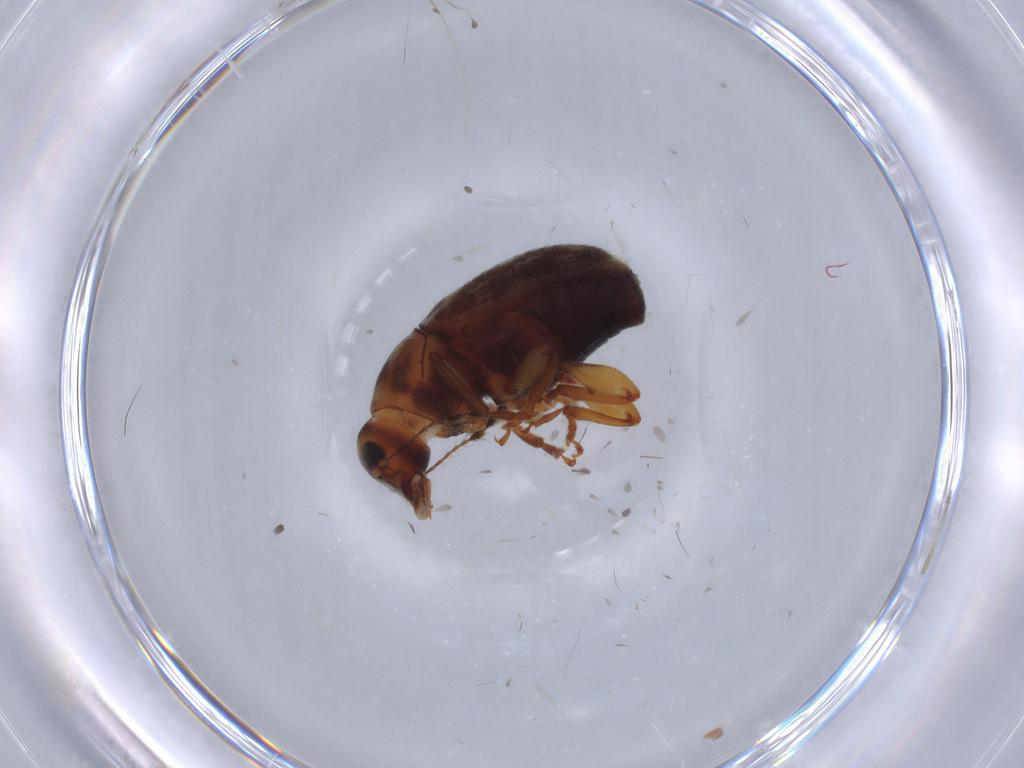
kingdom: Animalia
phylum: Arthropoda
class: Insecta
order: Coleoptera
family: Anthribidae
